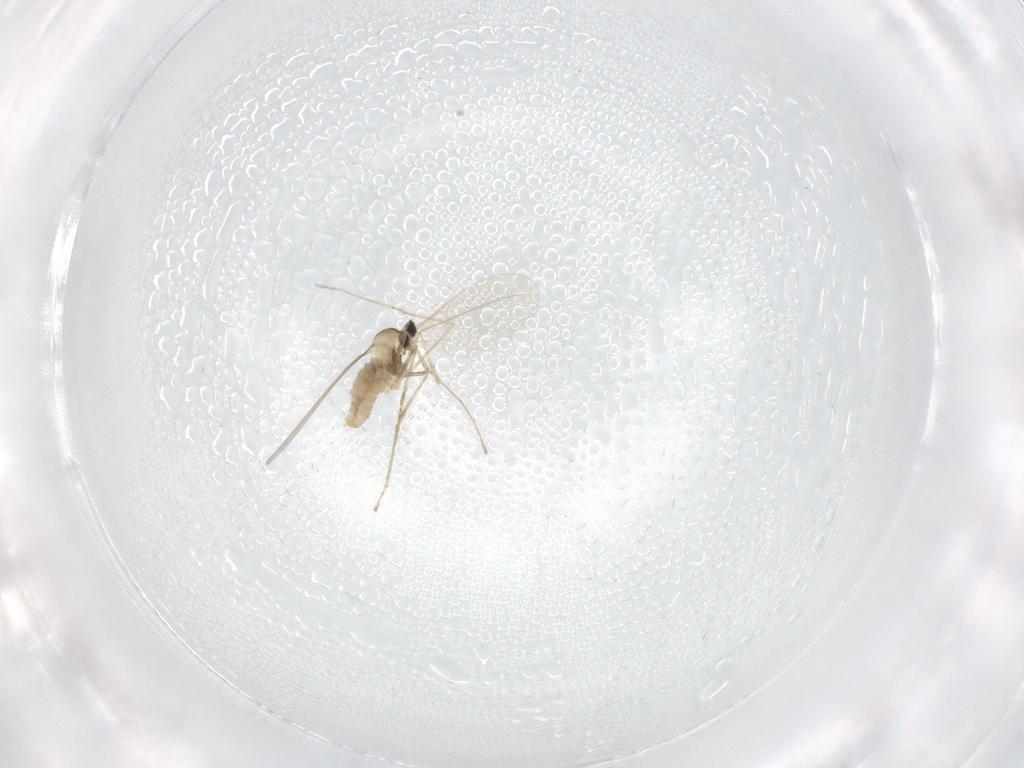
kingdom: Animalia
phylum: Arthropoda
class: Insecta
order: Diptera
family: Cecidomyiidae
